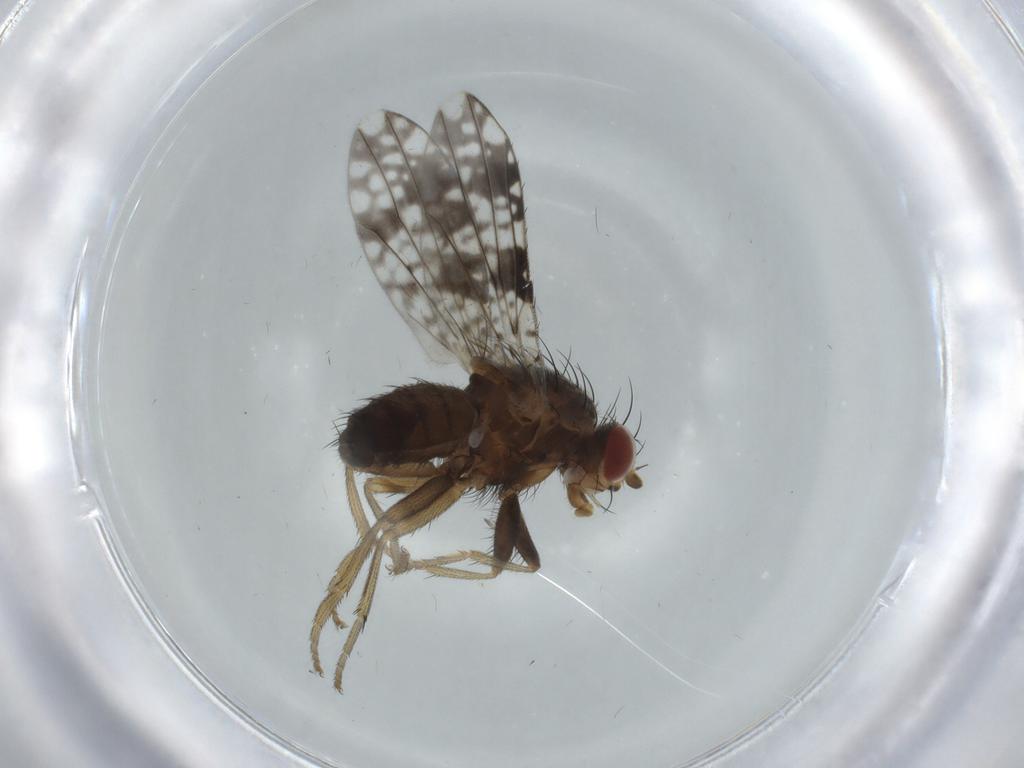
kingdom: Animalia
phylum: Arthropoda
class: Insecta
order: Diptera
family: Tephritidae
